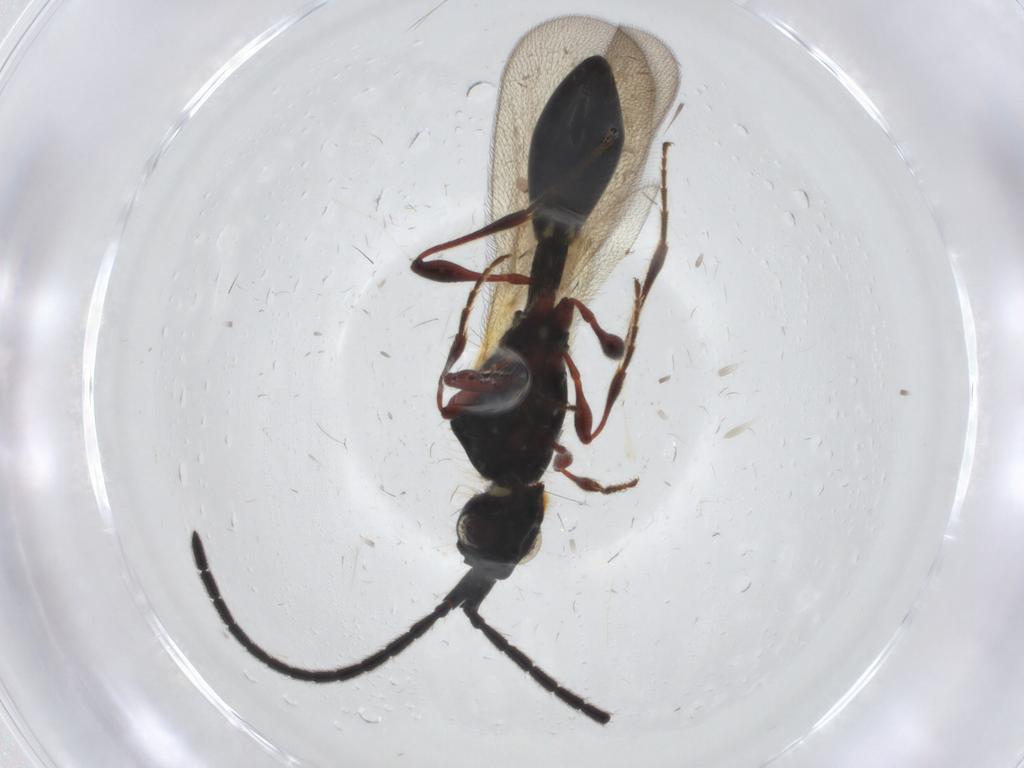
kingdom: Animalia
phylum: Arthropoda
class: Insecta
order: Hymenoptera
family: Diapriidae
